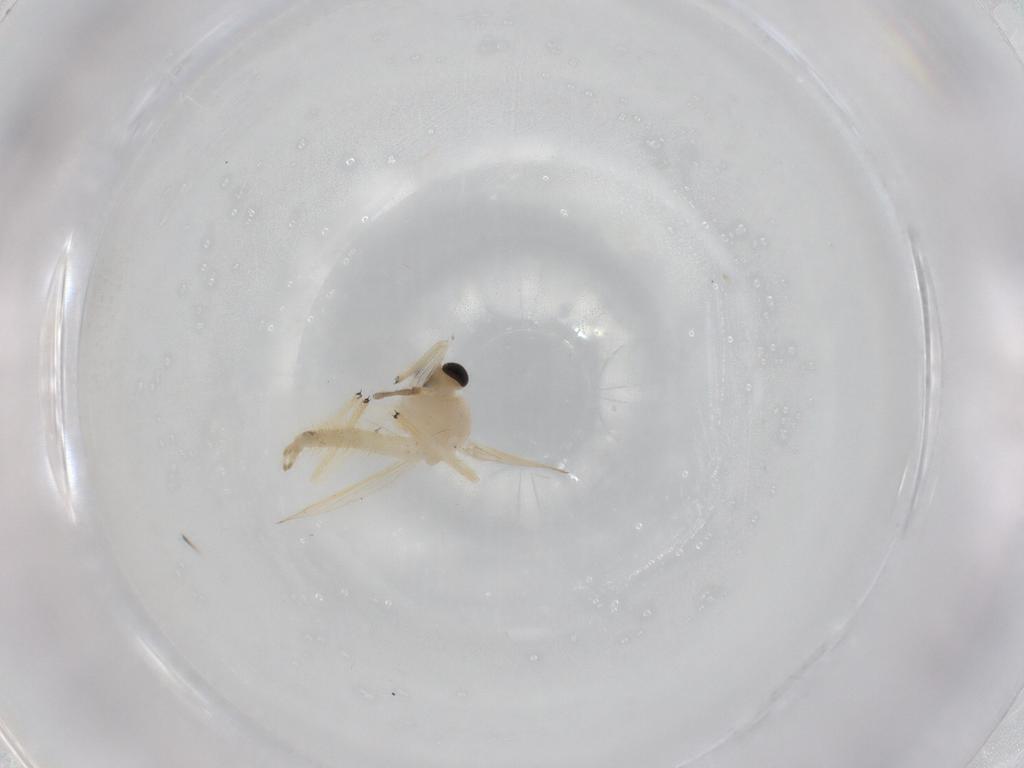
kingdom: Animalia
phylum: Arthropoda
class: Insecta
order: Diptera
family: Chironomidae
